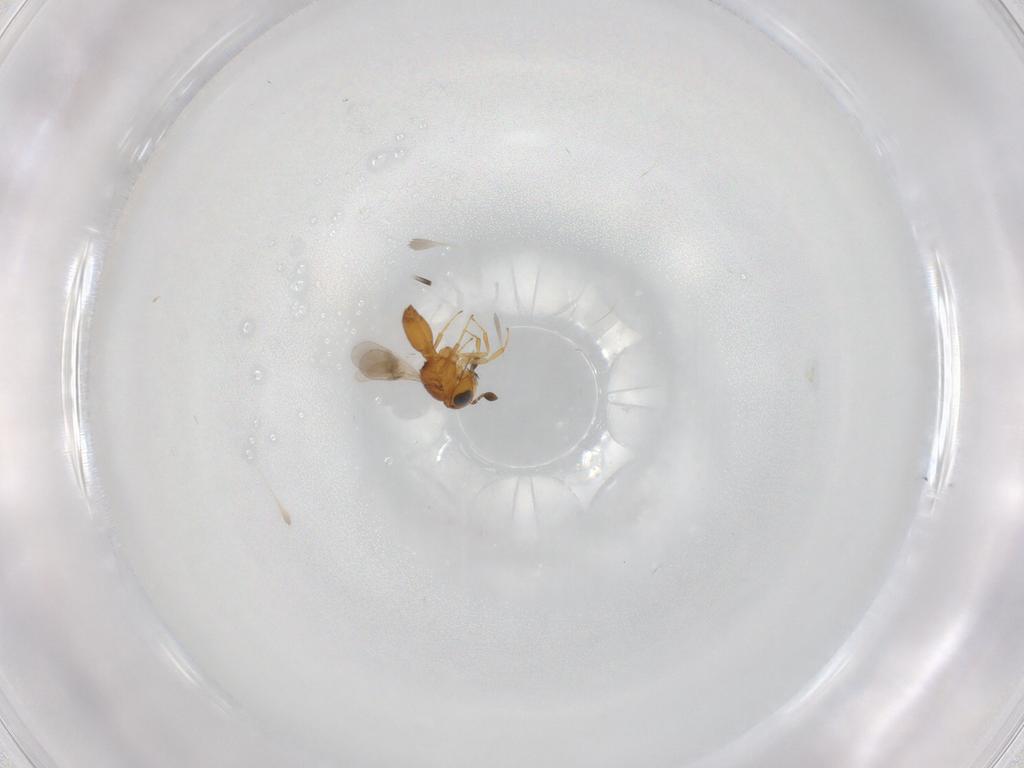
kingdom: Animalia
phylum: Arthropoda
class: Insecta
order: Hymenoptera
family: Scelionidae
